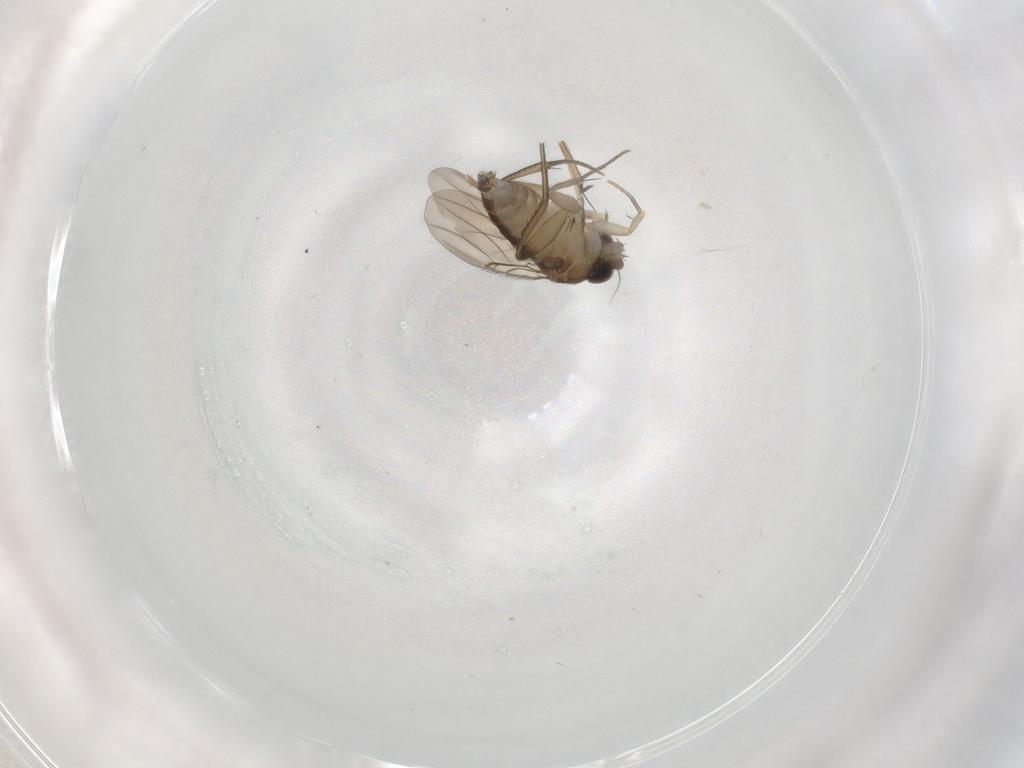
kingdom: Animalia
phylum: Arthropoda
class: Insecta
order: Diptera
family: Phoridae
